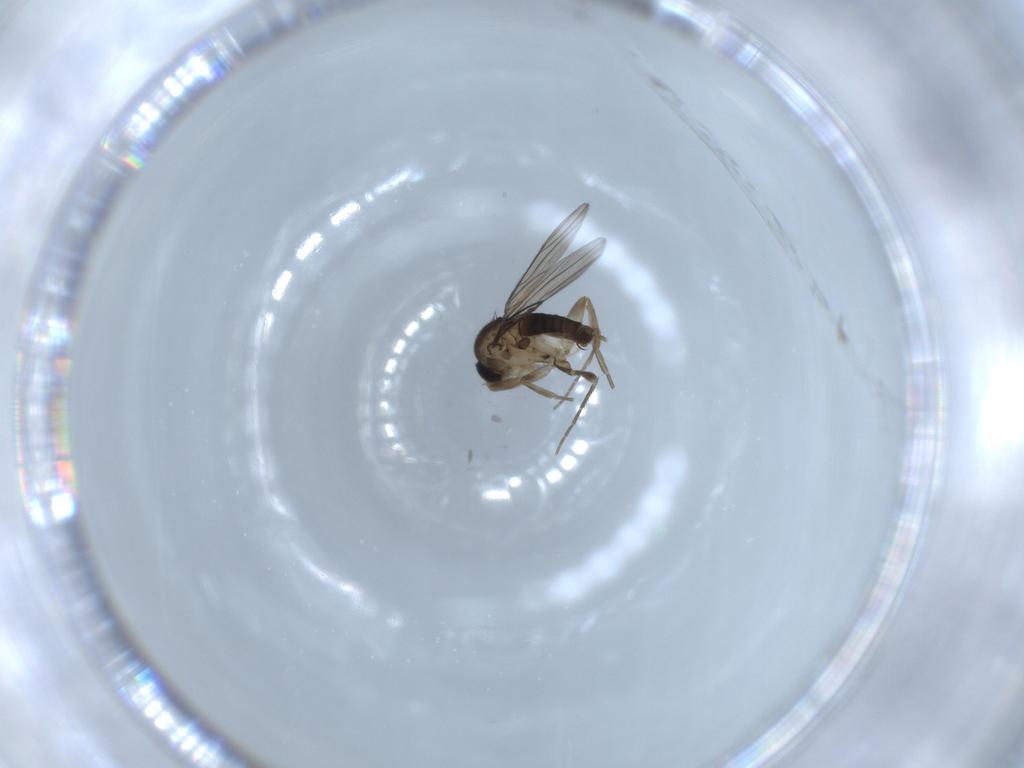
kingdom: Animalia
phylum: Arthropoda
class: Insecta
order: Diptera
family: Phoridae
